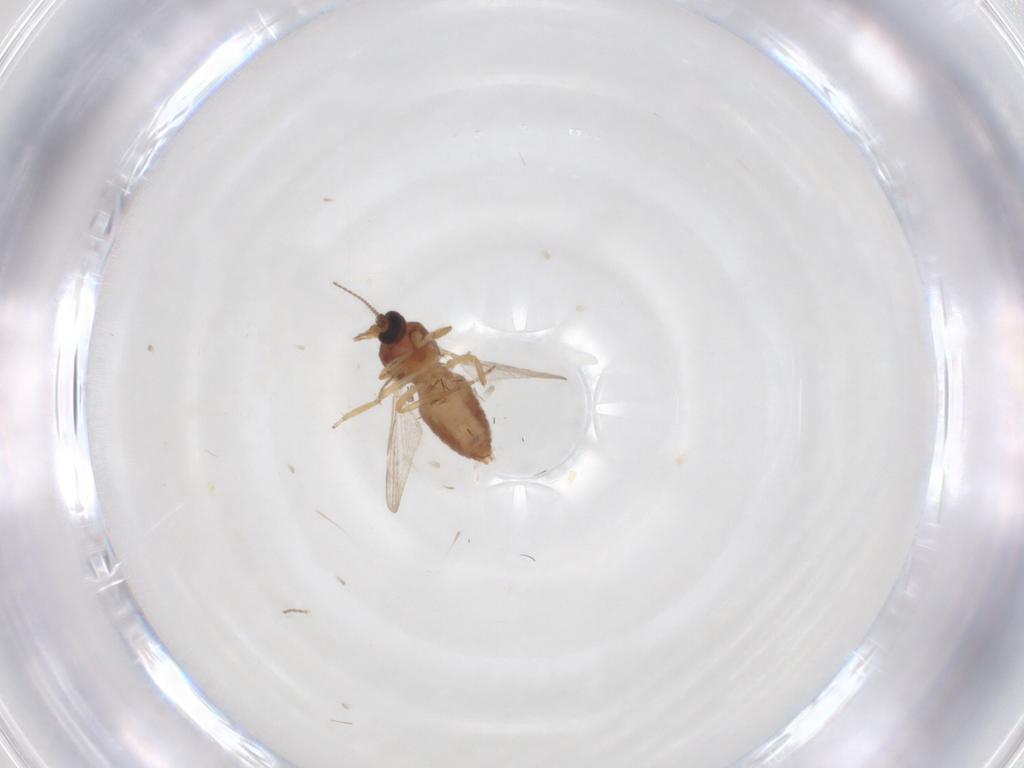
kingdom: Animalia
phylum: Arthropoda
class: Insecta
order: Diptera
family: Ceratopogonidae
